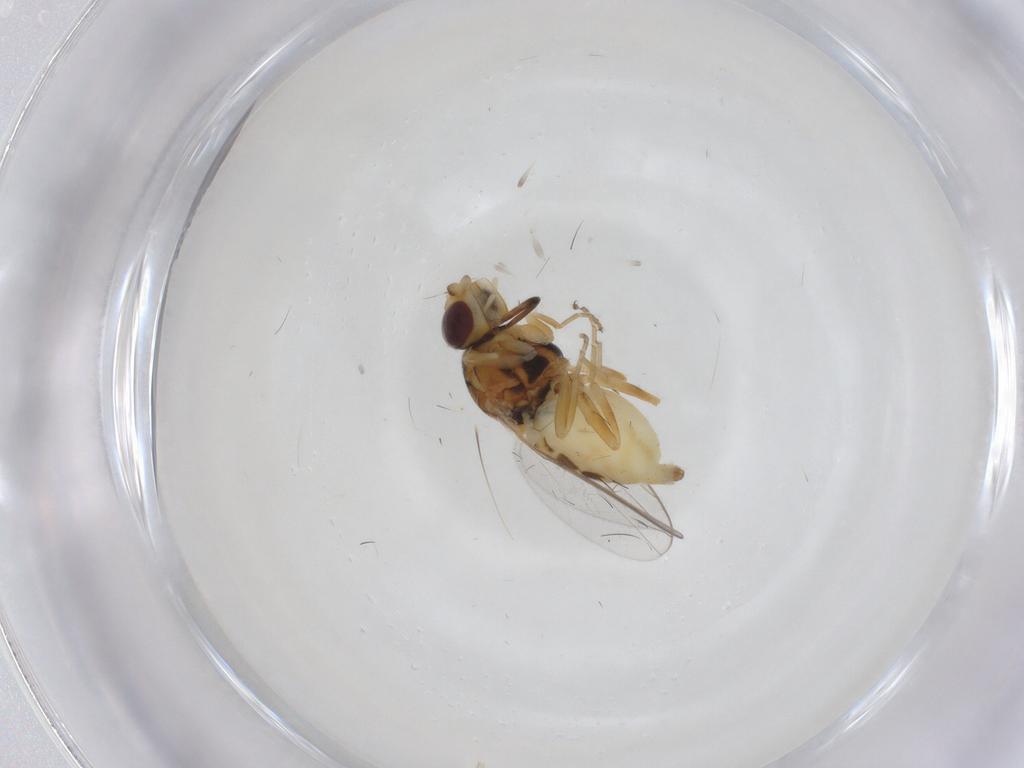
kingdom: Animalia
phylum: Arthropoda
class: Insecta
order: Diptera
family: Chloropidae
